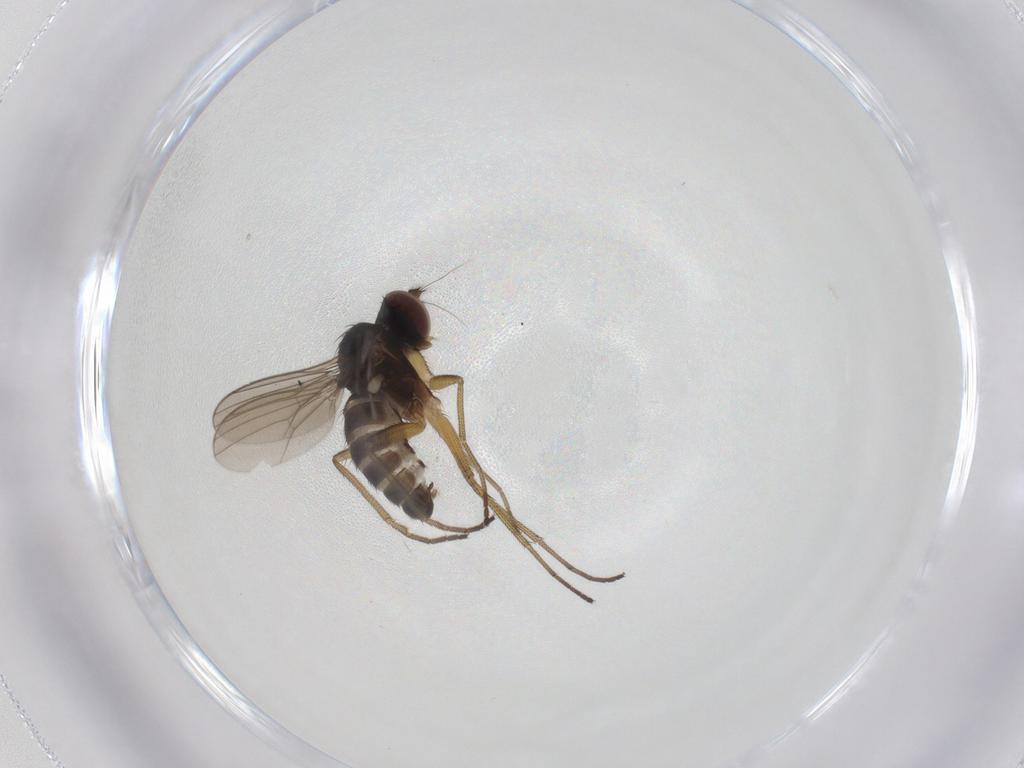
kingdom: Animalia
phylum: Arthropoda
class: Insecta
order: Diptera
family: Dolichopodidae
